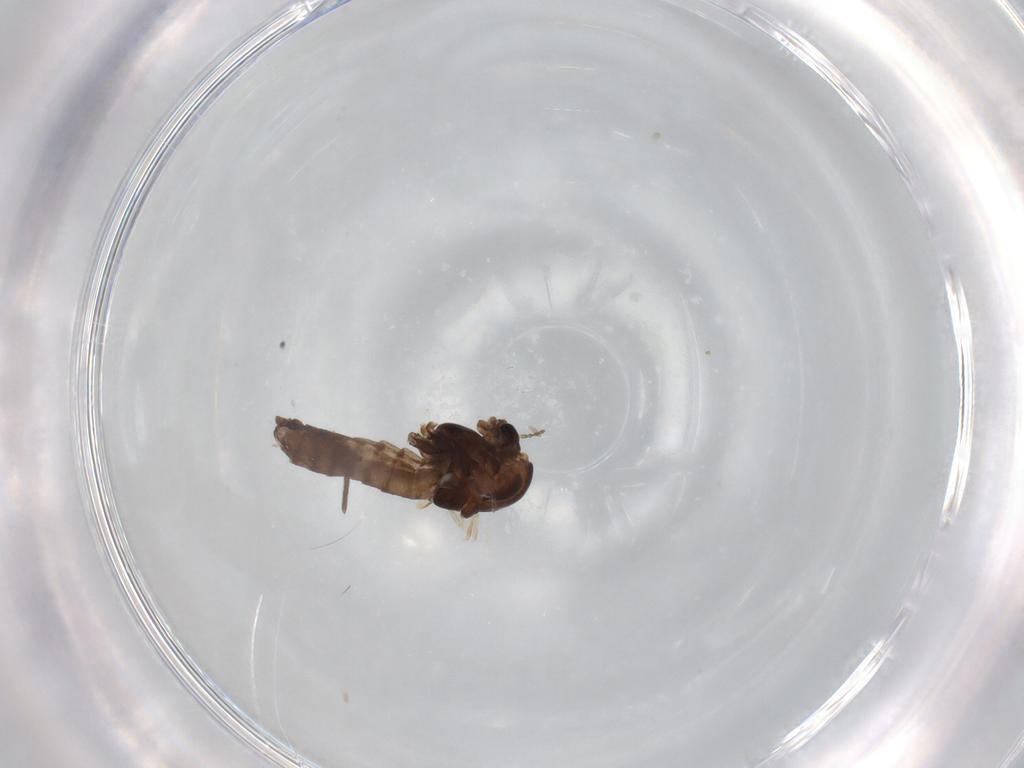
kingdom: Animalia
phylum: Arthropoda
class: Insecta
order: Diptera
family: Chironomidae
